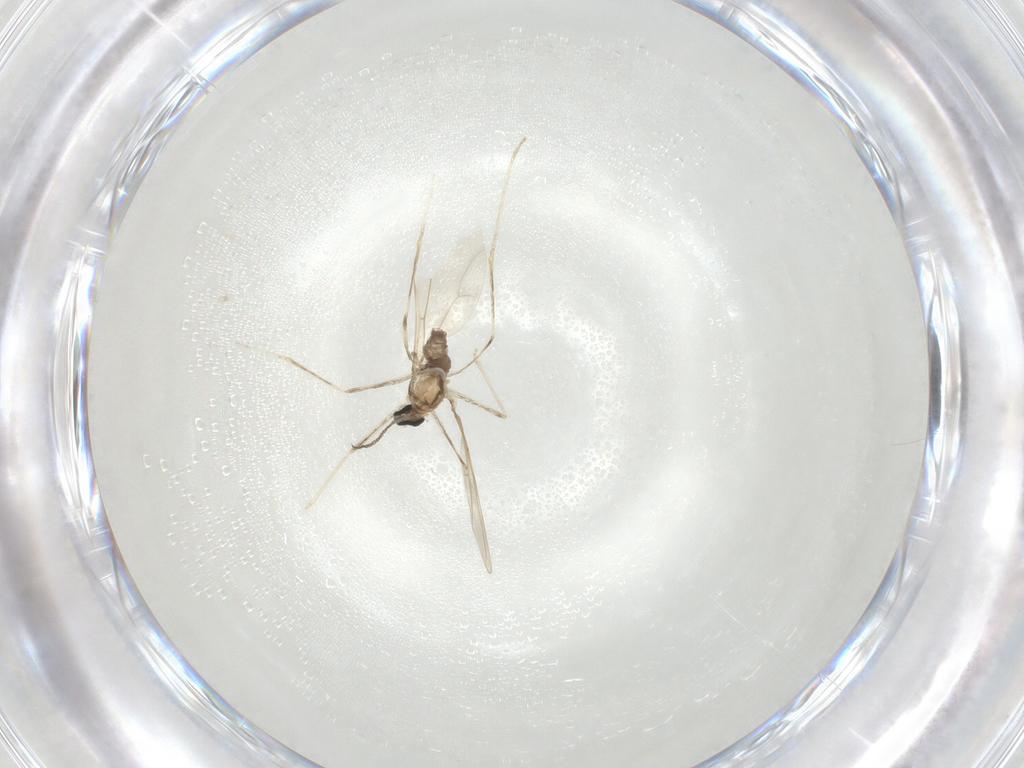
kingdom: Animalia
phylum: Arthropoda
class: Insecta
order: Diptera
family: Cecidomyiidae
